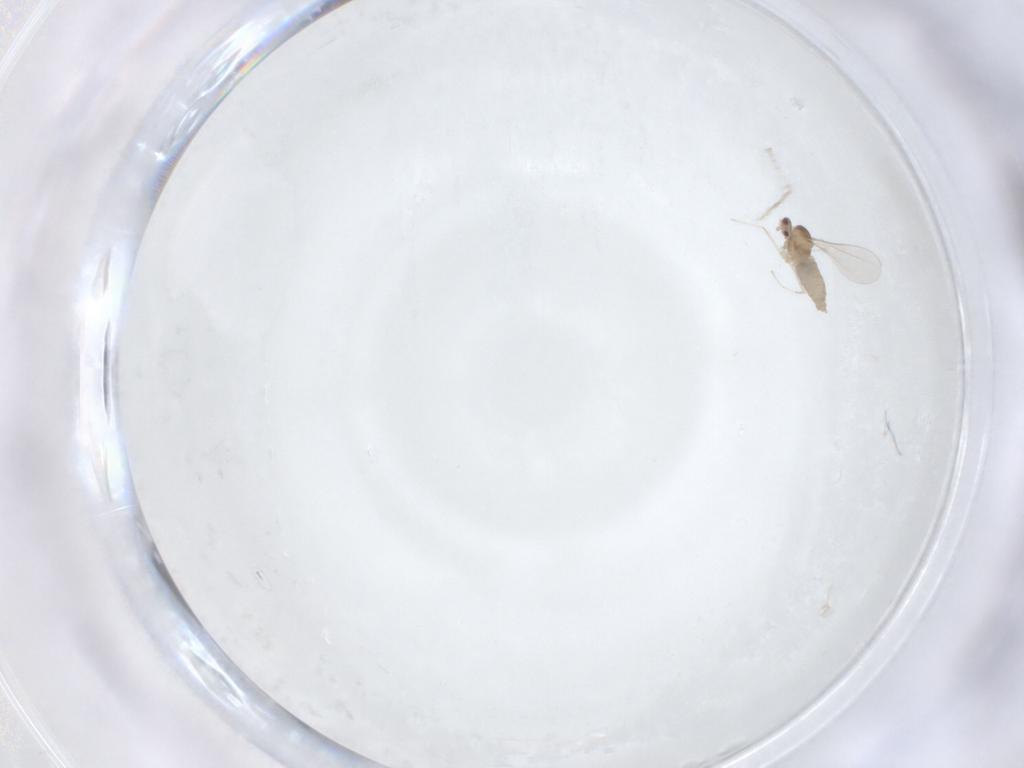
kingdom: Animalia
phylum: Arthropoda
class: Insecta
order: Diptera
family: Cecidomyiidae
